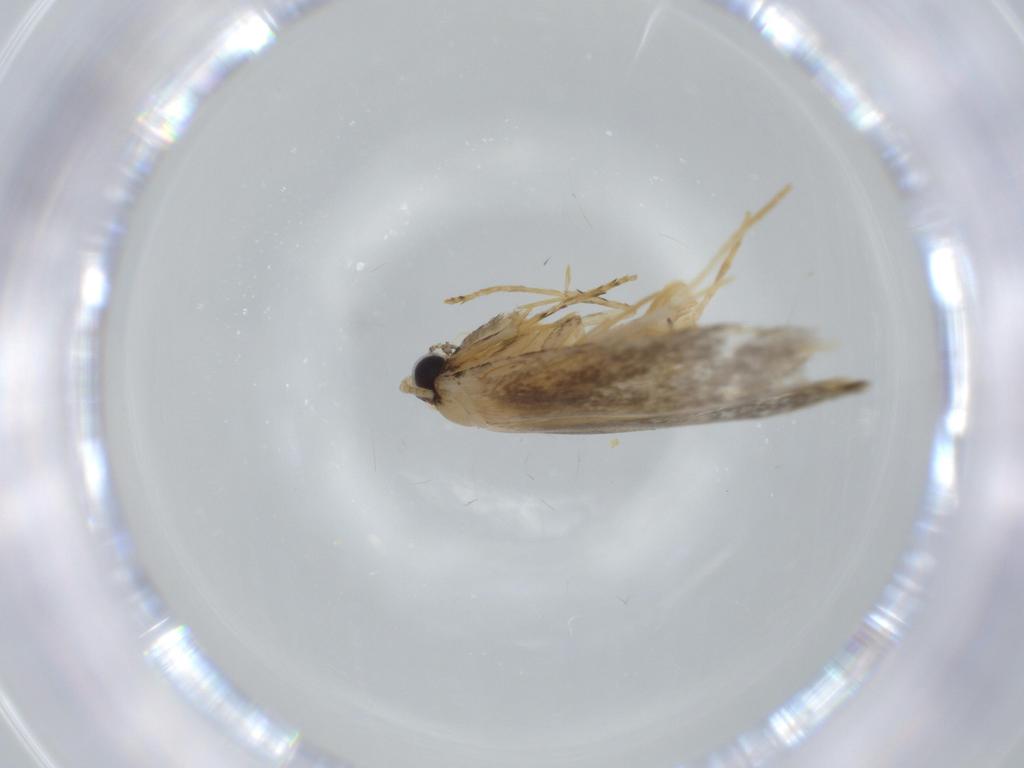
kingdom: Animalia
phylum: Arthropoda
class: Insecta
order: Lepidoptera
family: Tineidae
